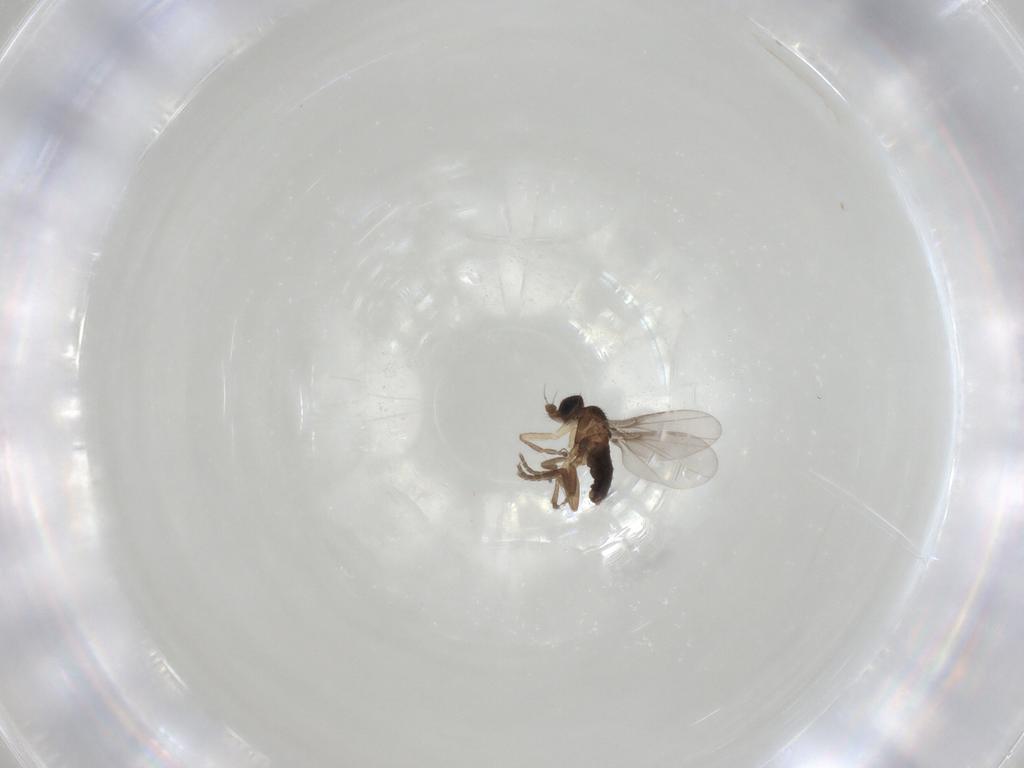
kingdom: Animalia
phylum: Arthropoda
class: Insecta
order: Diptera
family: Phoridae
